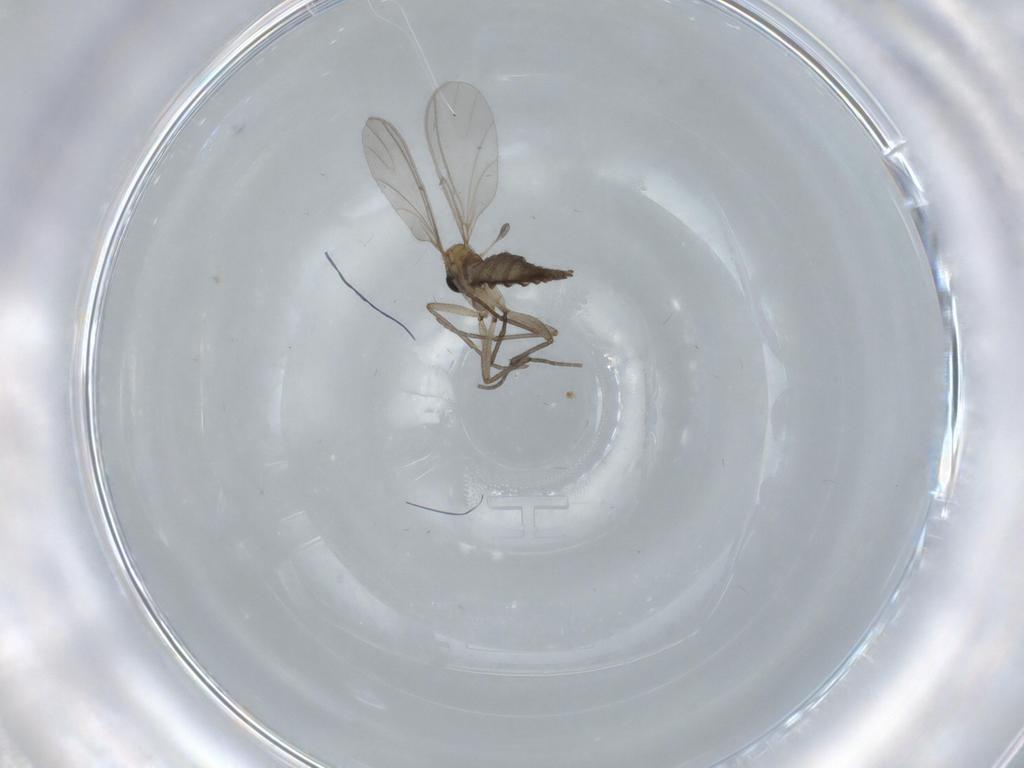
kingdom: Animalia
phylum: Arthropoda
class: Insecta
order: Diptera
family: Sciaridae
